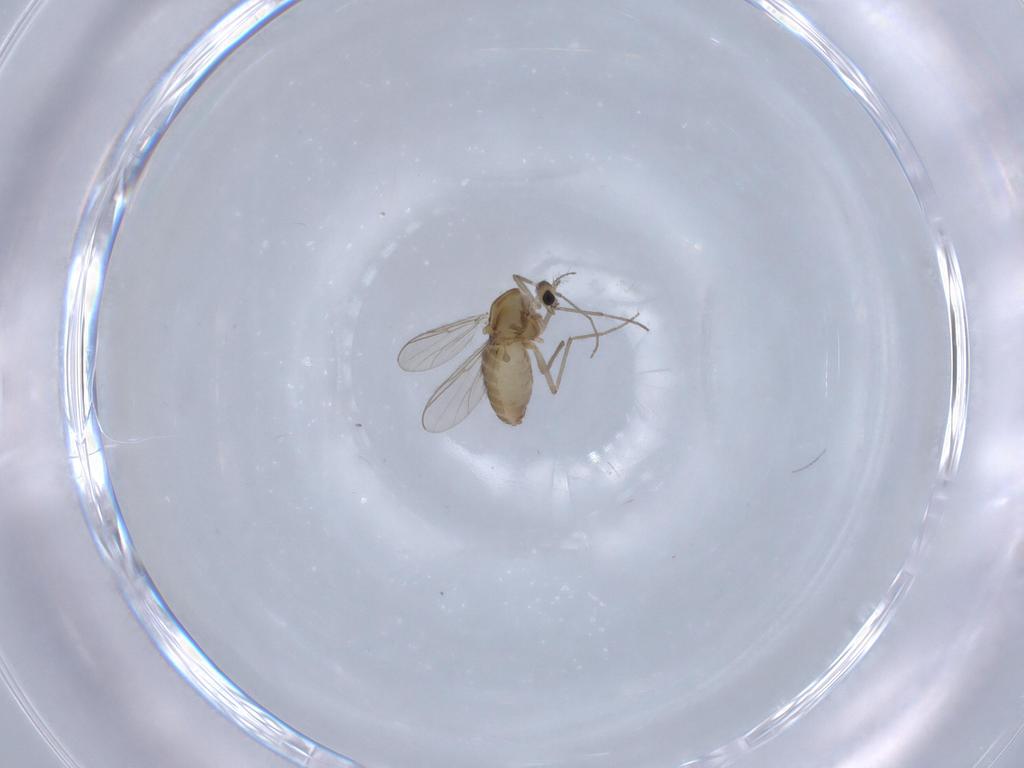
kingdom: Animalia
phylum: Arthropoda
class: Insecta
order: Diptera
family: Chironomidae
